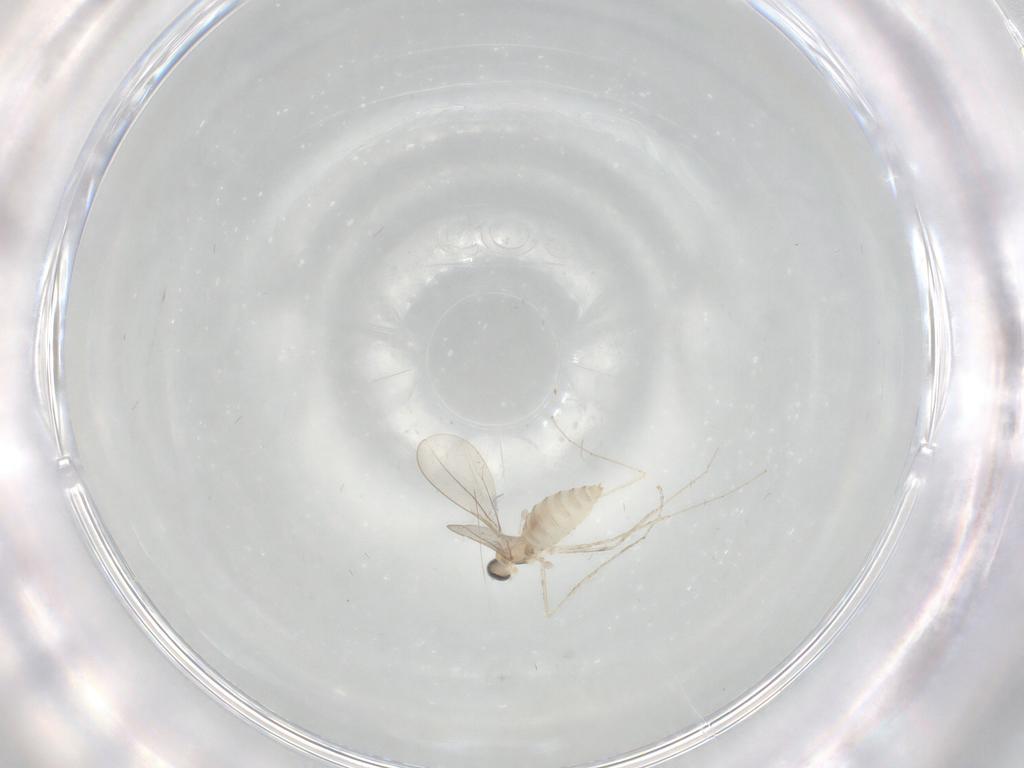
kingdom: Animalia
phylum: Arthropoda
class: Insecta
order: Diptera
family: Cecidomyiidae
